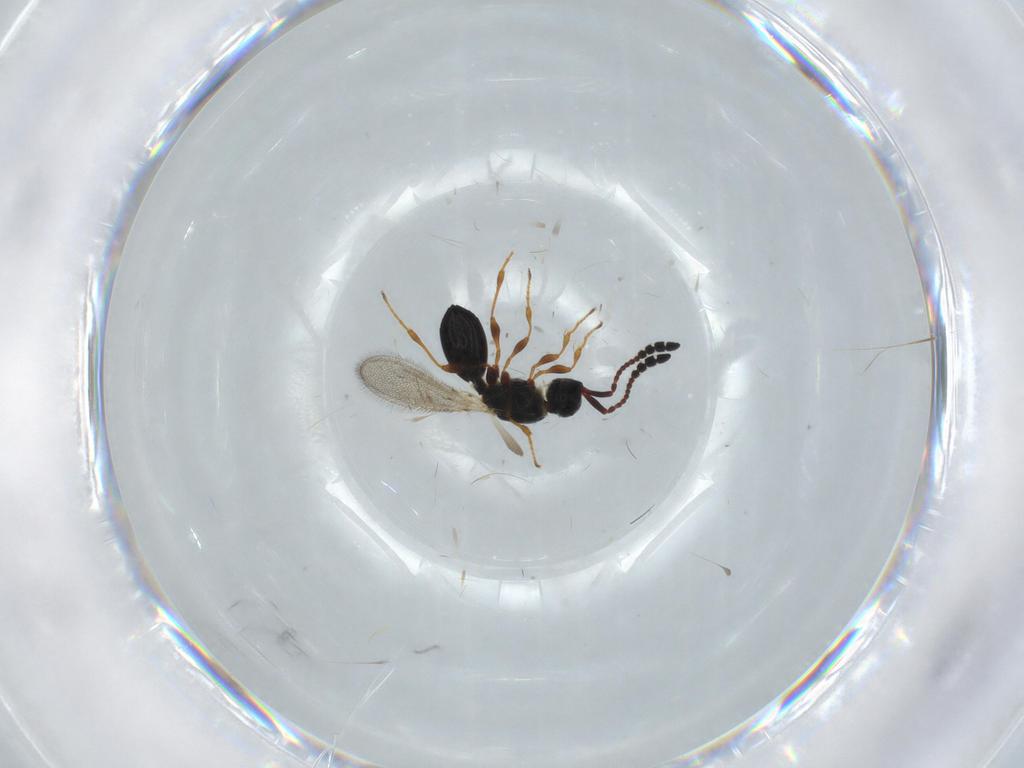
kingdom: Animalia
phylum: Arthropoda
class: Insecta
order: Hymenoptera
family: Diapriidae
